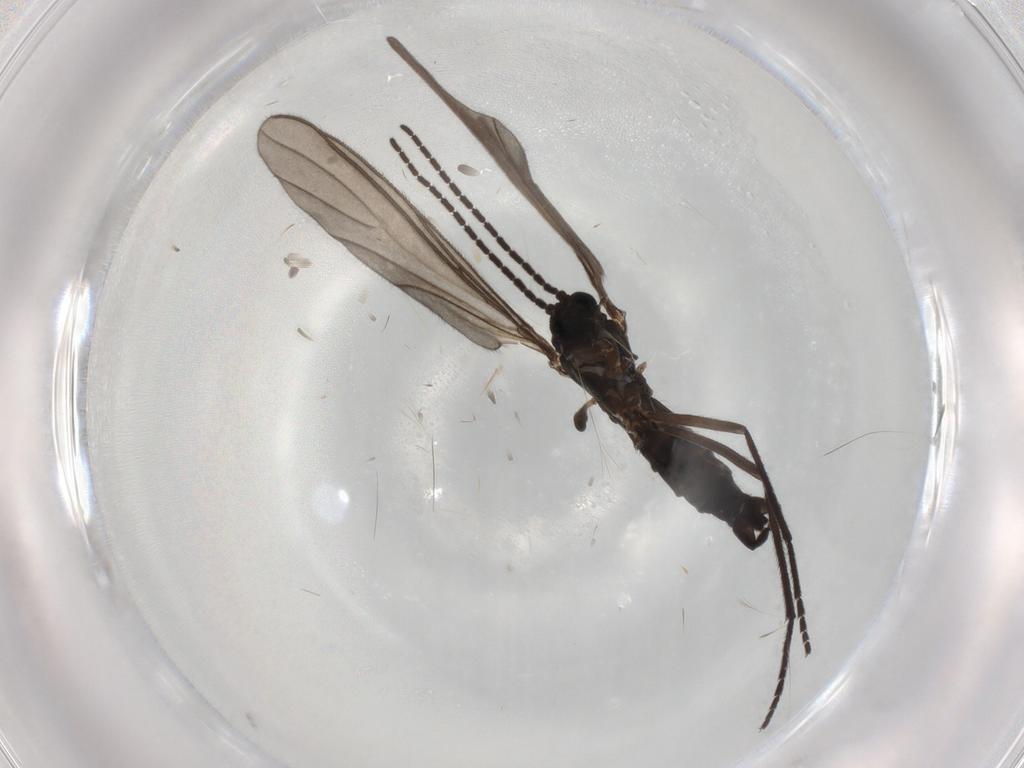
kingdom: Animalia
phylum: Arthropoda
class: Insecta
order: Diptera
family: Sciaridae
